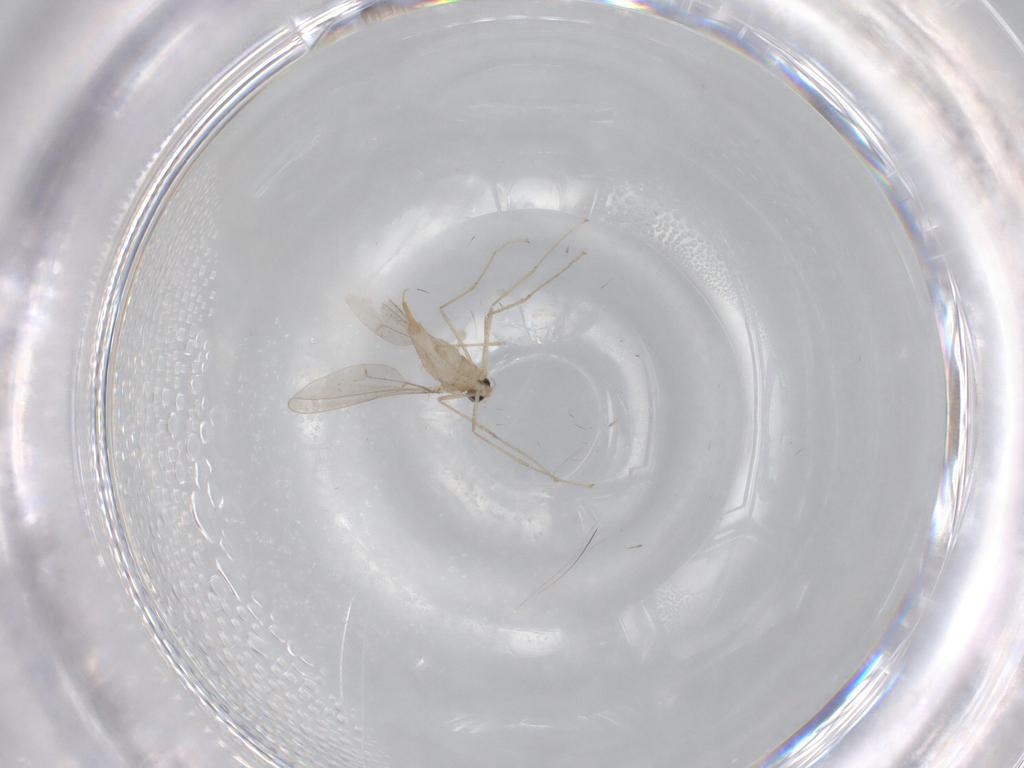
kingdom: Animalia
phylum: Arthropoda
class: Insecta
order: Diptera
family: Cecidomyiidae
